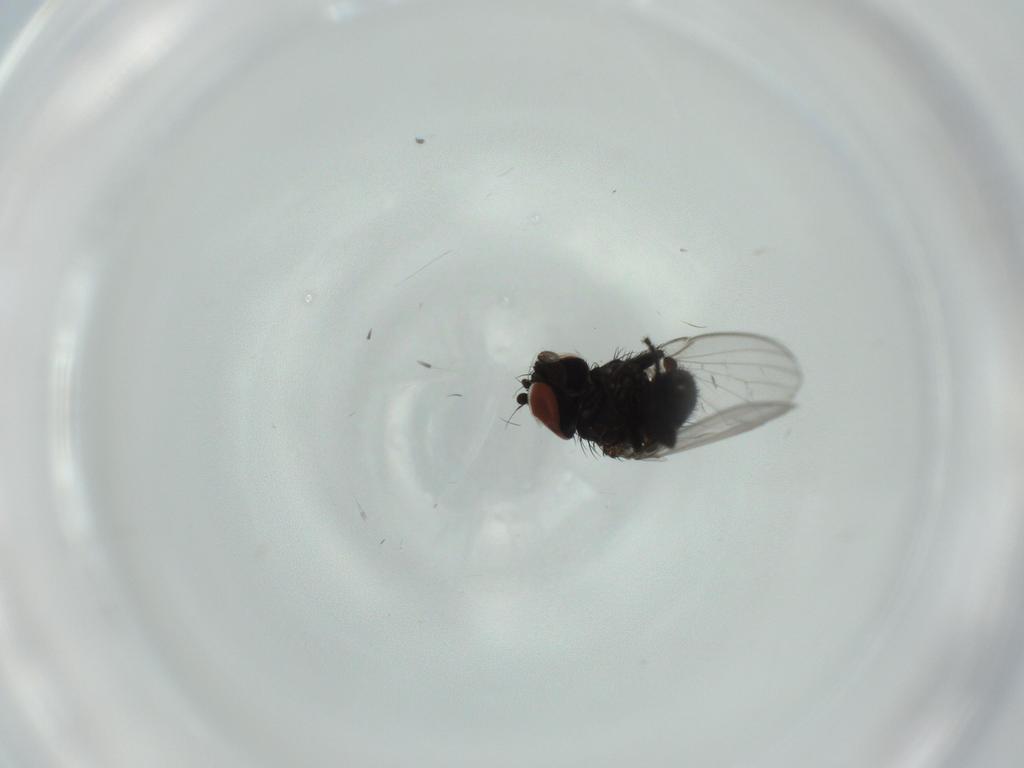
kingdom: Animalia
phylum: Arthropoda
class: Insecta
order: Diptera
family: Milichiidae
